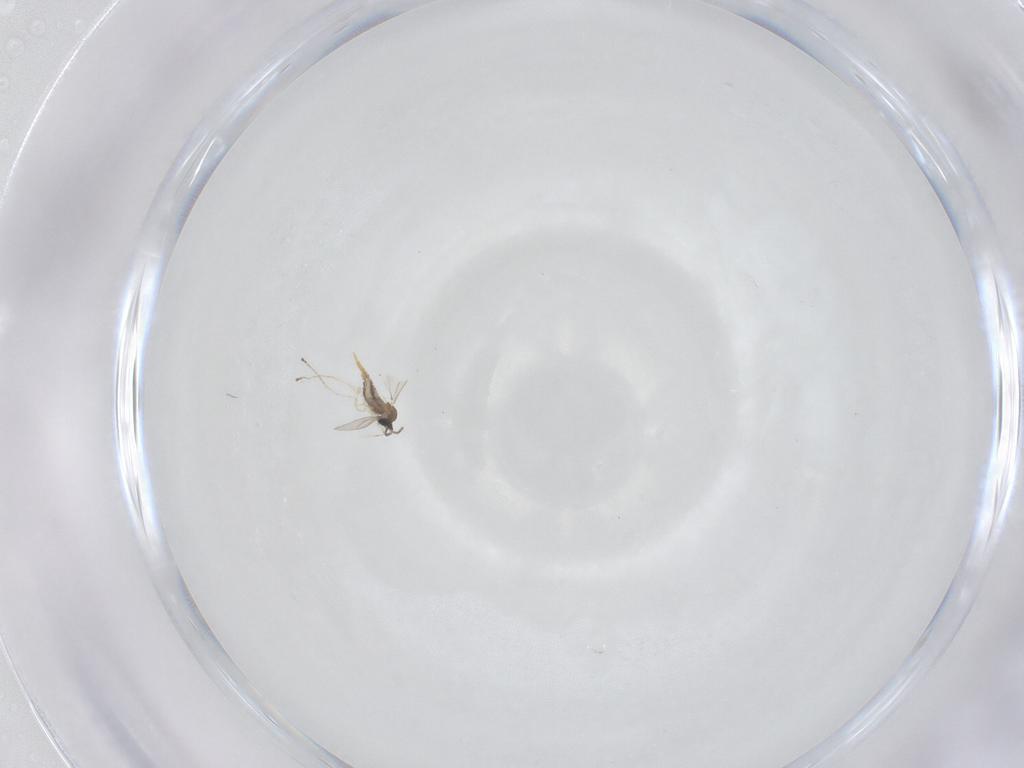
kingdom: Animalia
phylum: Arthropoda
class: Insecta
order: Diptera
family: Cecidomyiidae
